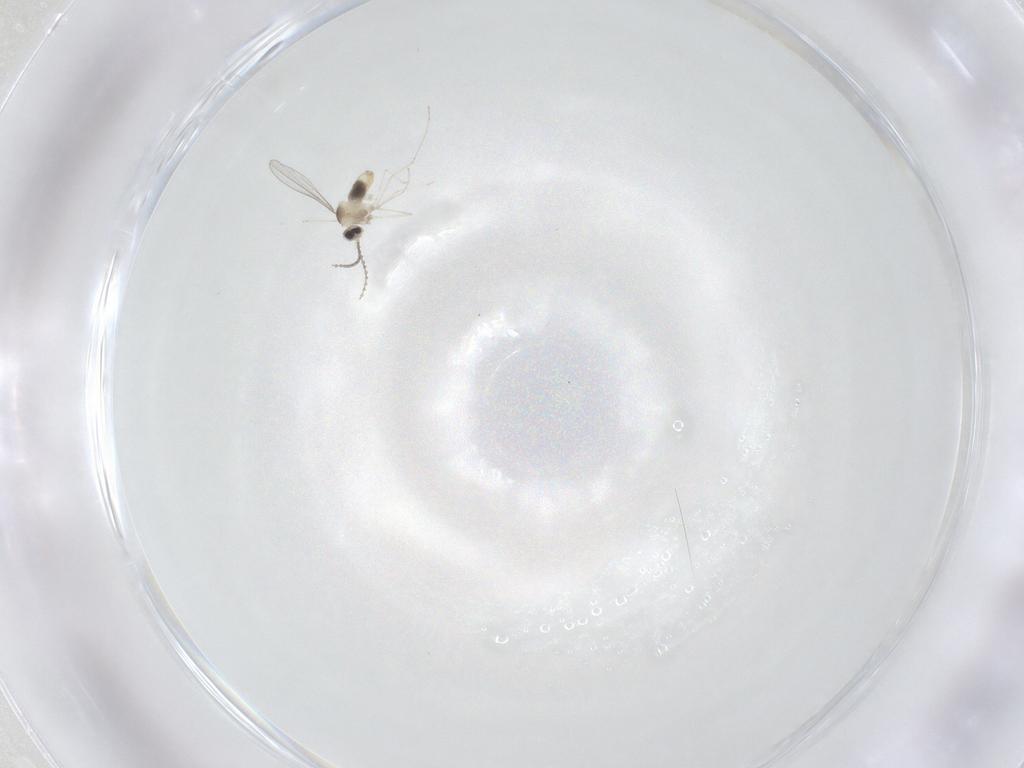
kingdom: Animalia
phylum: Arthropoda
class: Insecta
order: Diptera
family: Cecidomyiidae
